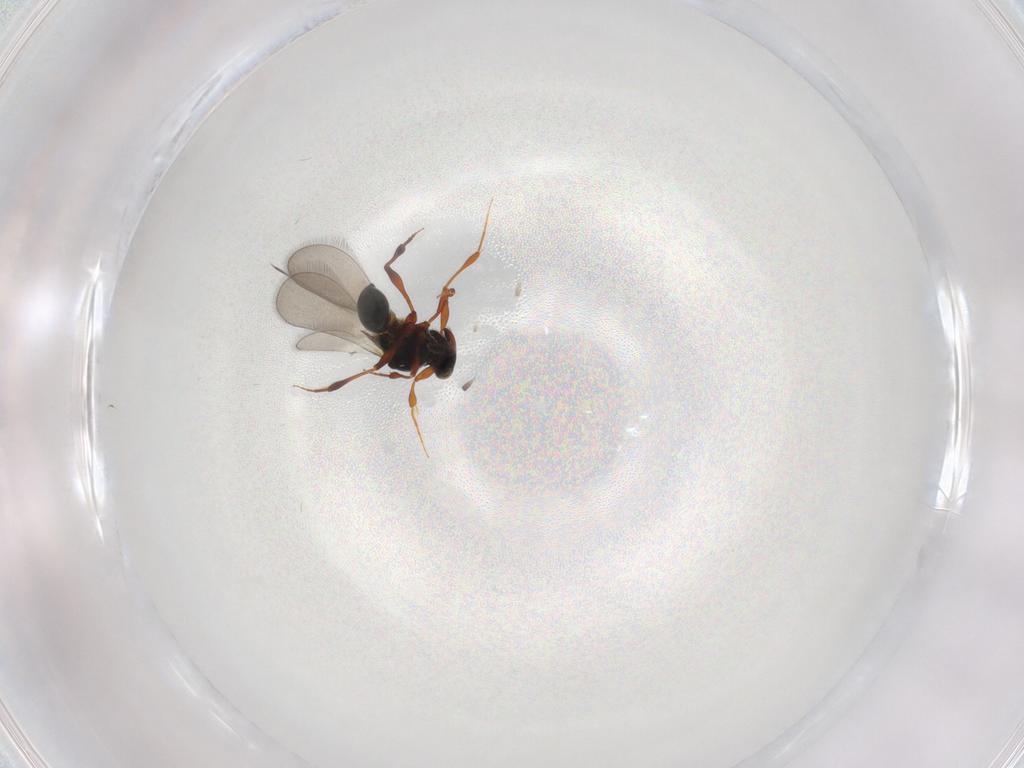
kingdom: Animalia
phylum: Arthropoda
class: Insecta
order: Hymenoptera
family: Platygastridae
